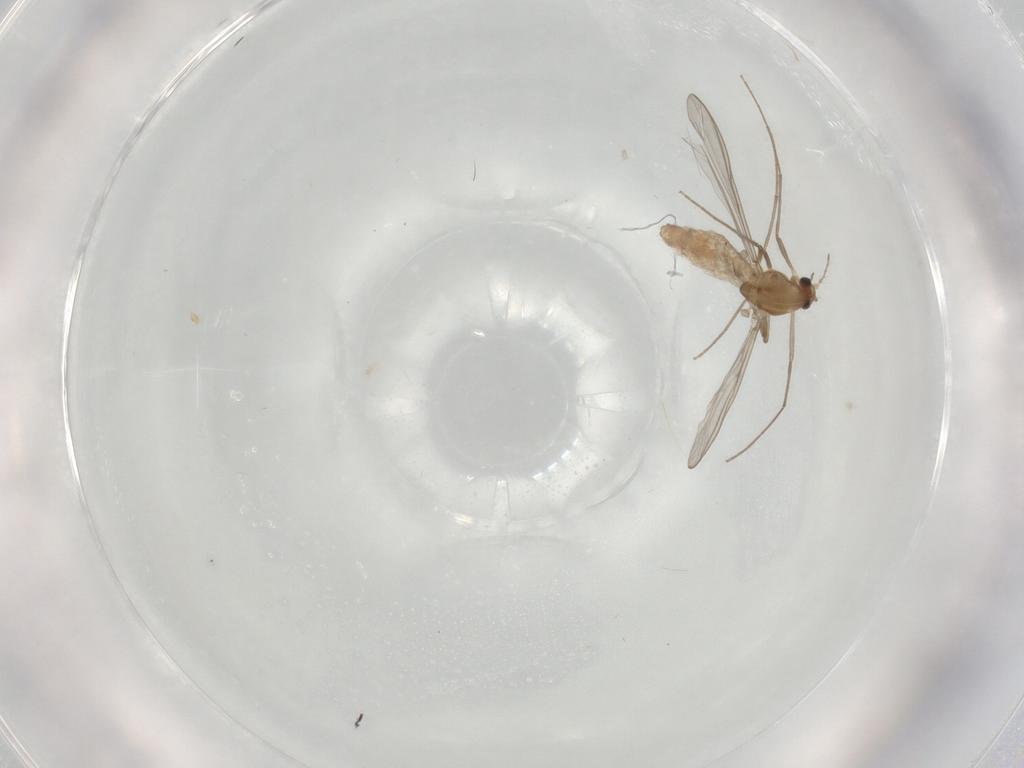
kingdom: Animalia
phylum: Arthropoda
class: Insecta
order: Diptera
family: Chironomidae
